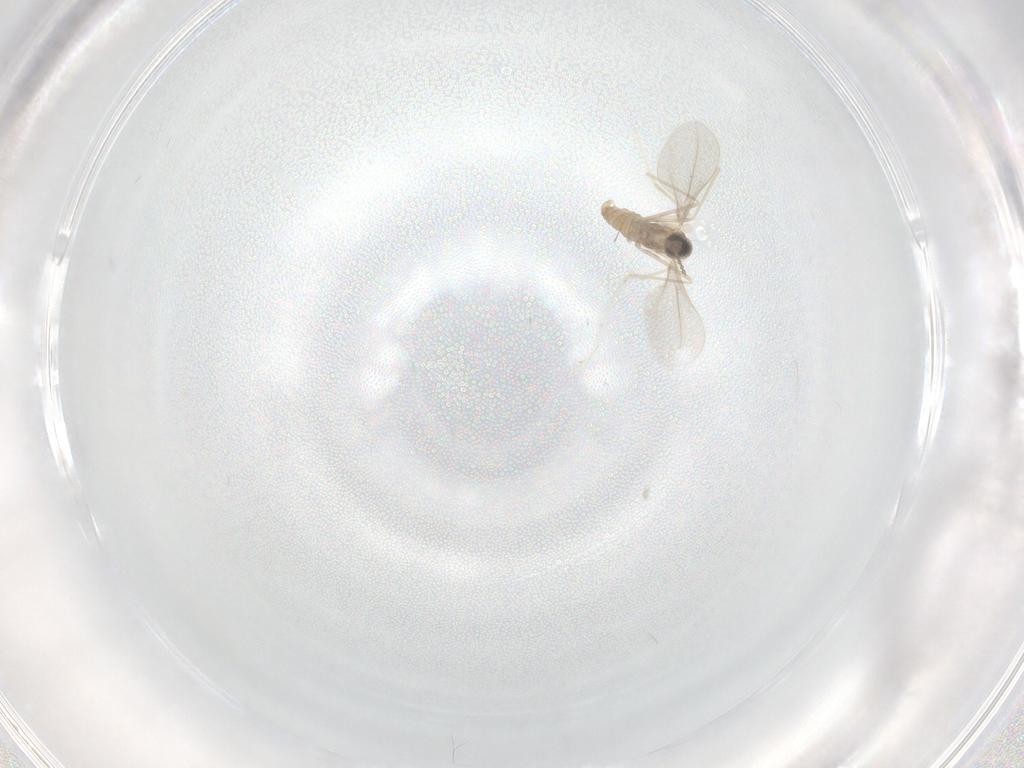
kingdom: Animalia
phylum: Arthropoda
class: Insecta
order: Diptera
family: Cecidomyiidae
